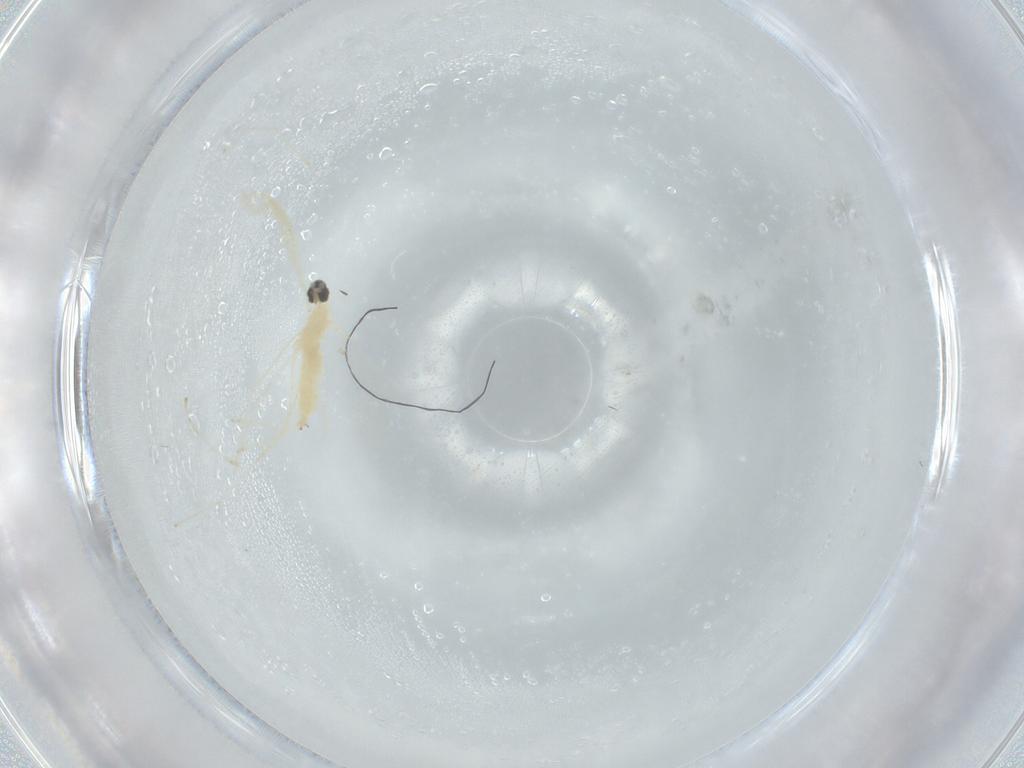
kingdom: Animalia
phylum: Arthropoda
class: Insecta
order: Diptera
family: Cecidomyiidae
